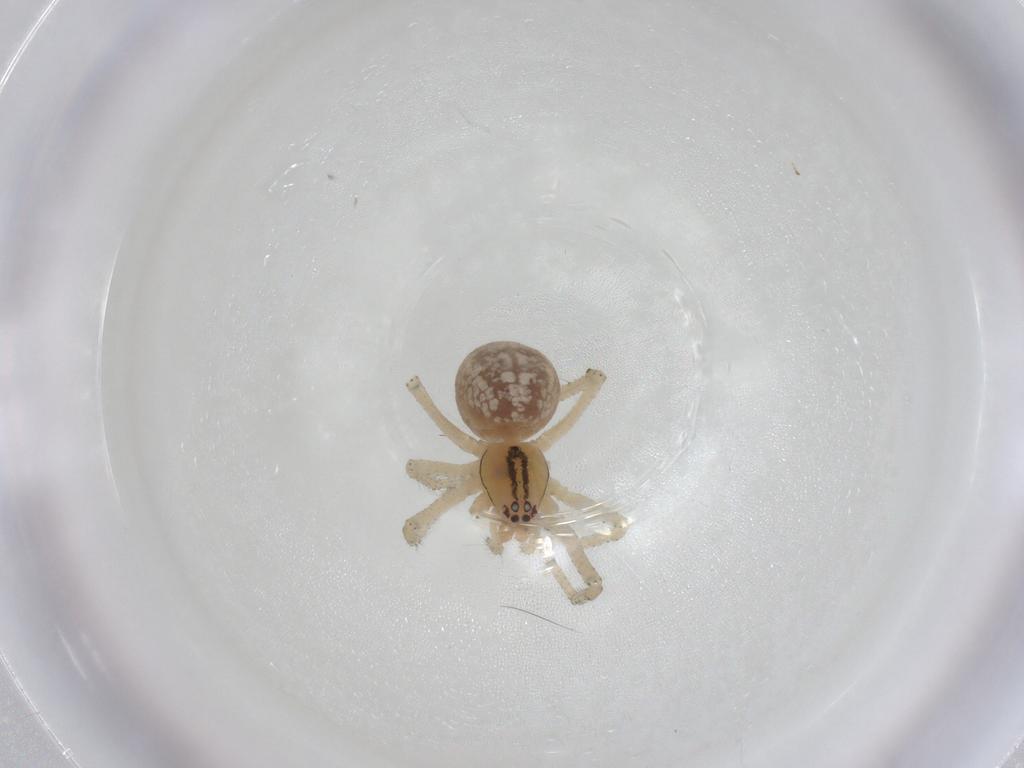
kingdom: Animalia
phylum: Arthropoda
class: Arachnida
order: Araneae
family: Theridiidae
